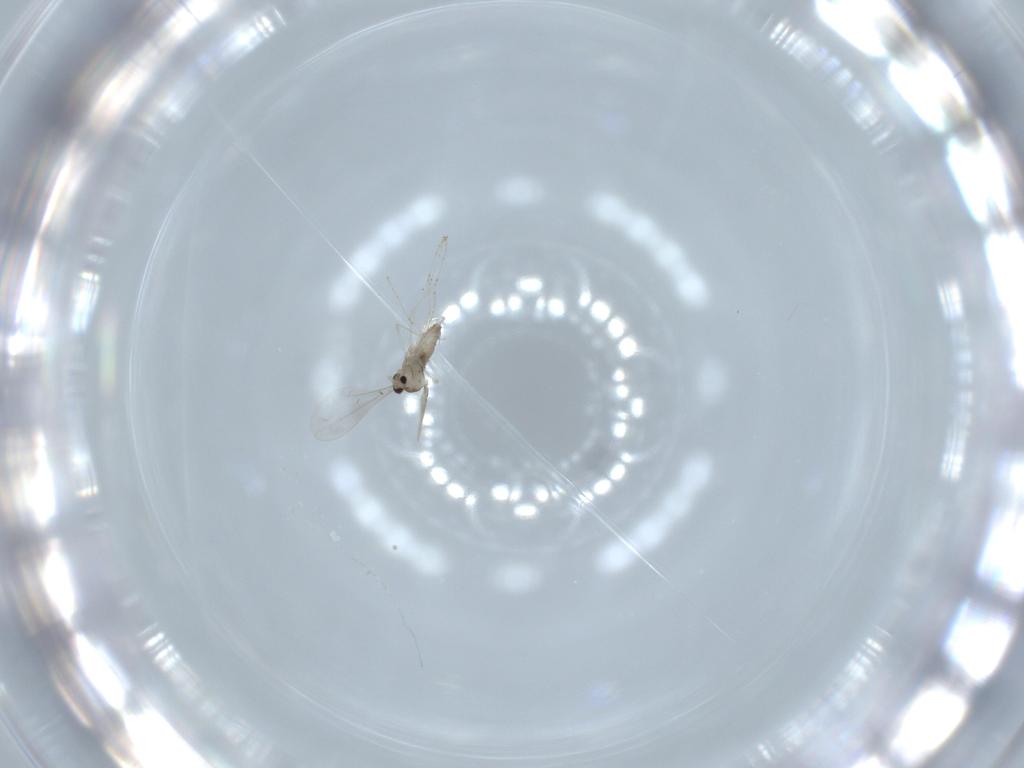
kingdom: Animalia
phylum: Arthropoda
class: Insecta
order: Diptera
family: Cecidomyiidae
